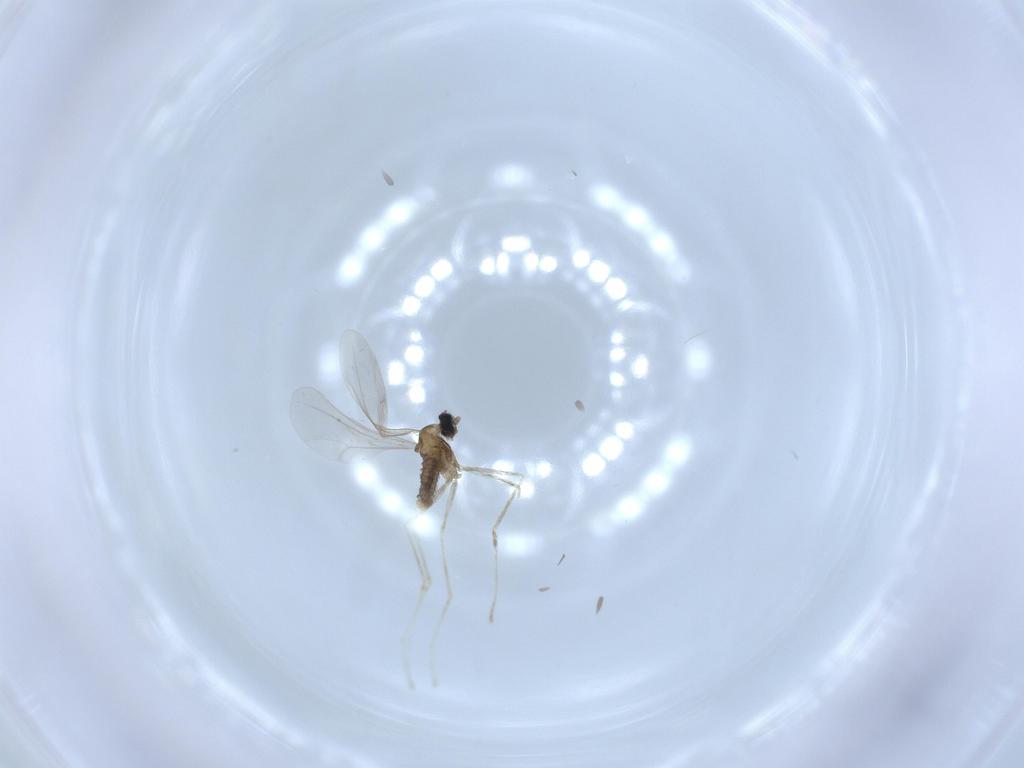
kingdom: Animalia
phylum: Arthropoda
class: Insecta
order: Diptera
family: Cecidomyiidae
